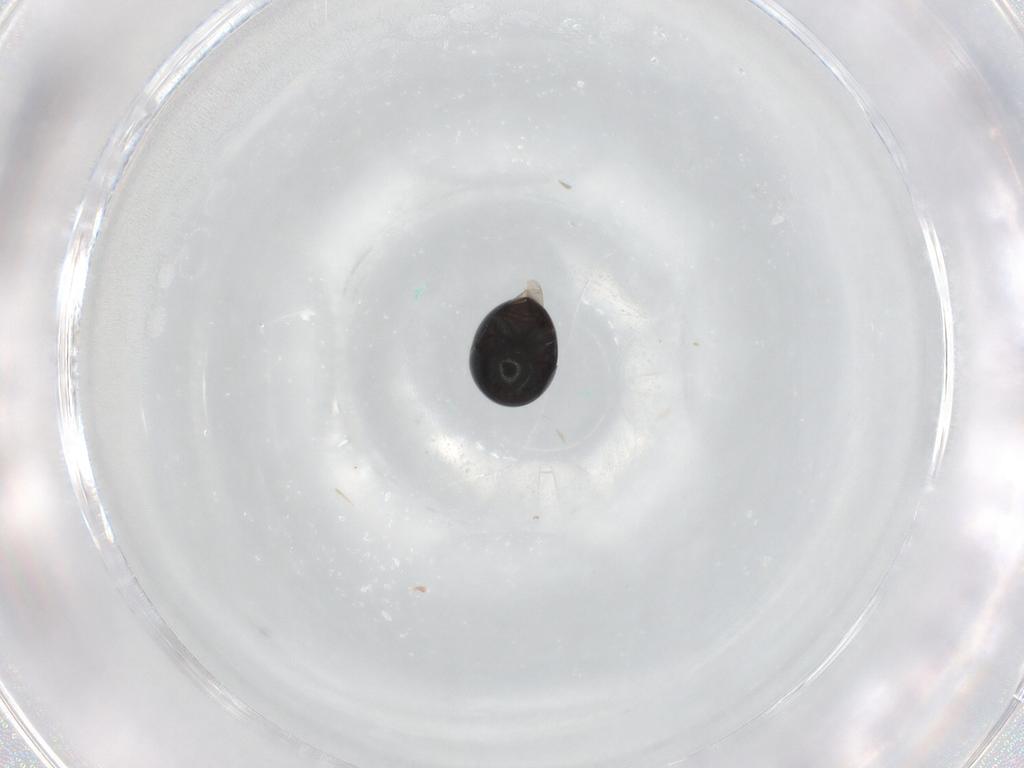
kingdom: Animalia
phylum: Arthropoda
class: Insecta
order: Coleoptera
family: Cybocephalidae
